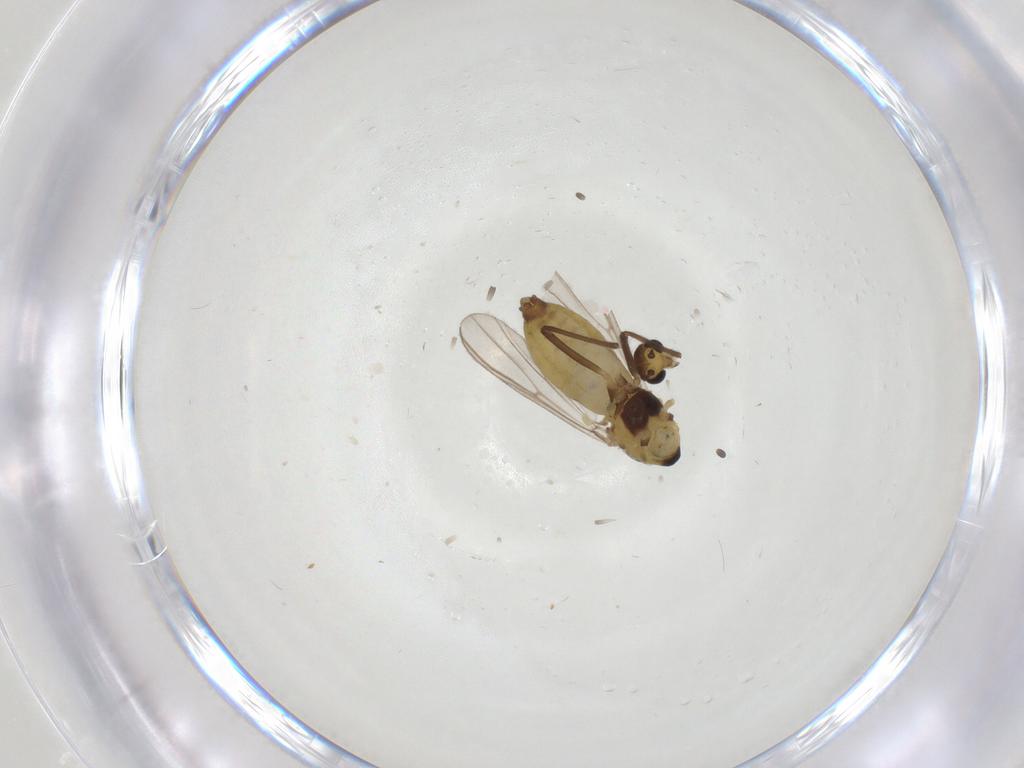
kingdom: Animalia
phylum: Arthropoda
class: Insecta
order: Diptera
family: Chironomidae
